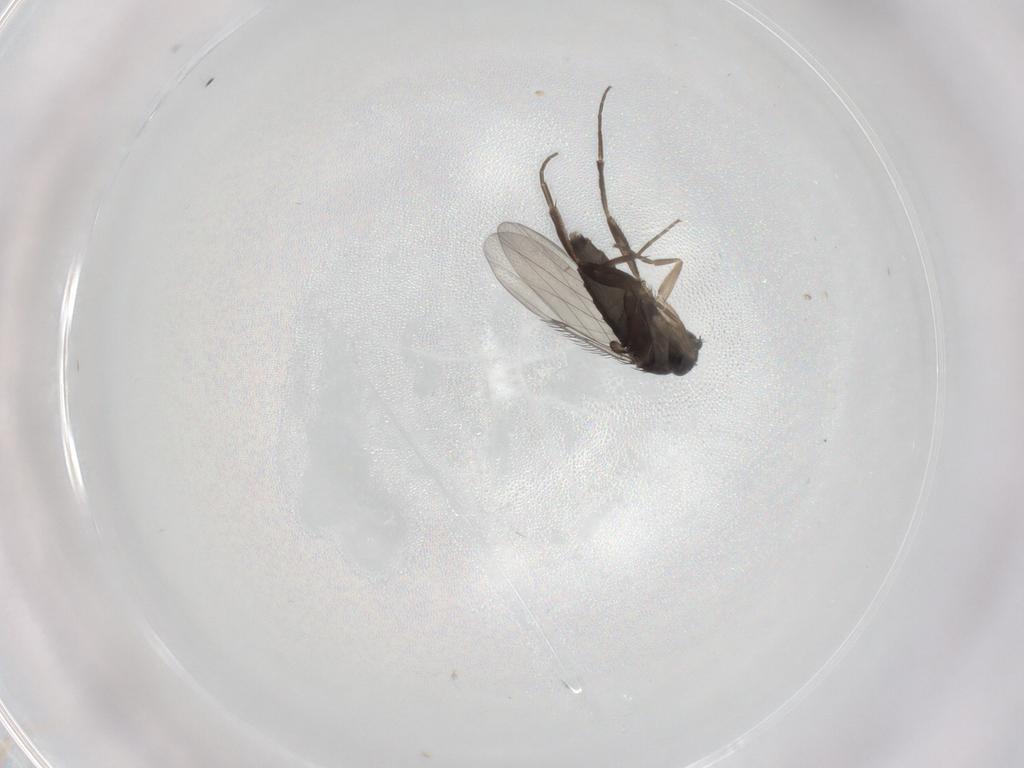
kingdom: Animalia
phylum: Arthropoda
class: Insecta
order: Diptera
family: Phoridae
